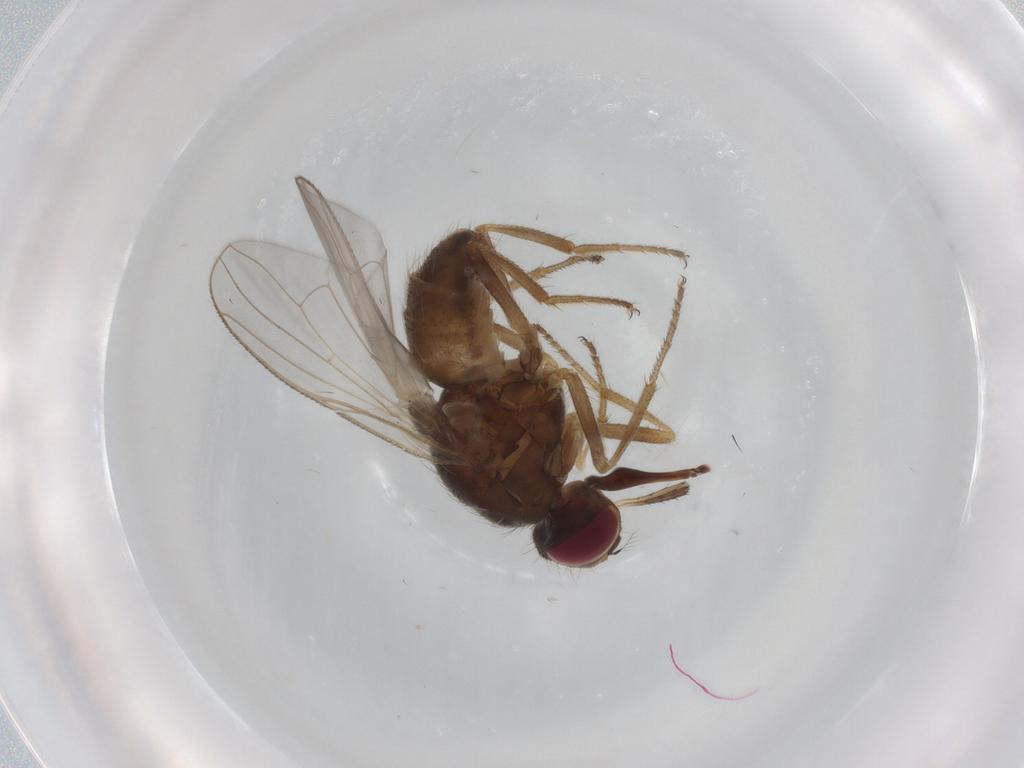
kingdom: Animalia
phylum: Arthropoda
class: Insecta
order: Diptera
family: Muscidae
